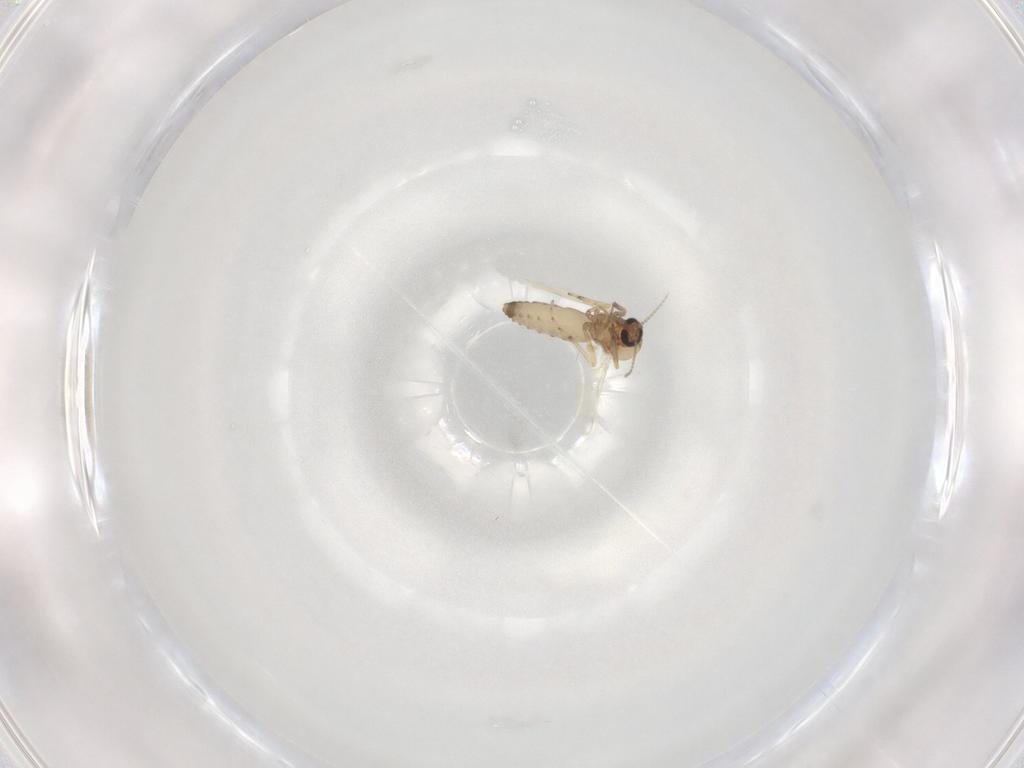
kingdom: Animalia
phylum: Arthropoda
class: Insecta
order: Diptera
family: Ceratopogonidae
